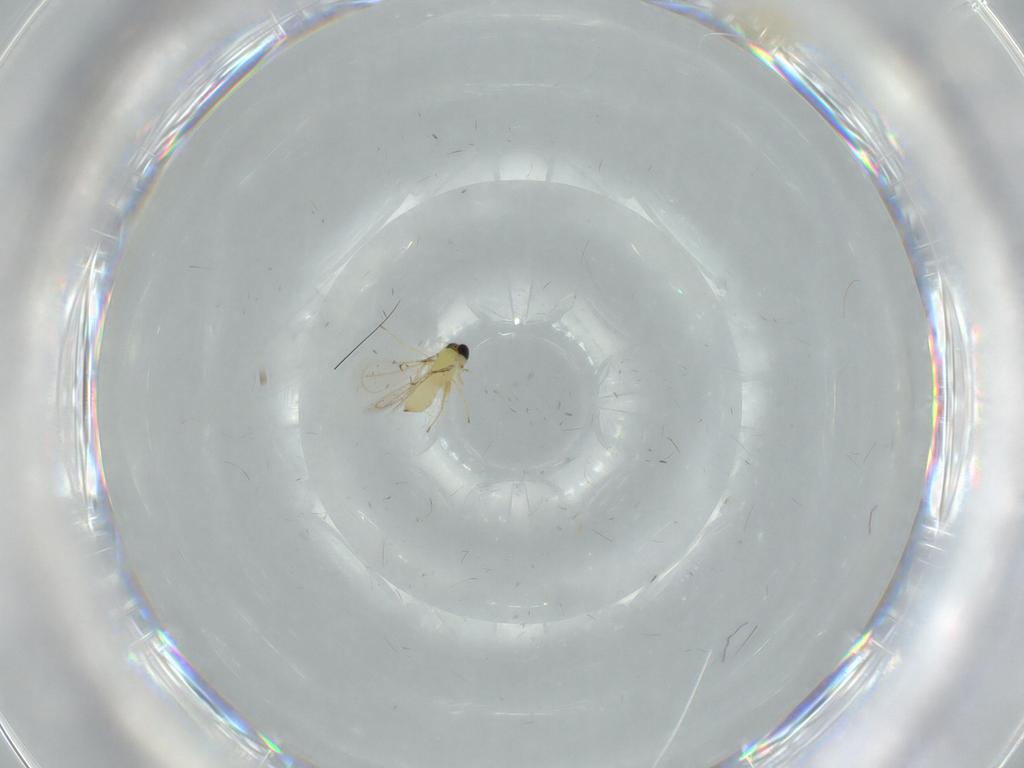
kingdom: Animalia
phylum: Arthropoda
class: Insecta
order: Hymenoptera
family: Trichogrammatidae
